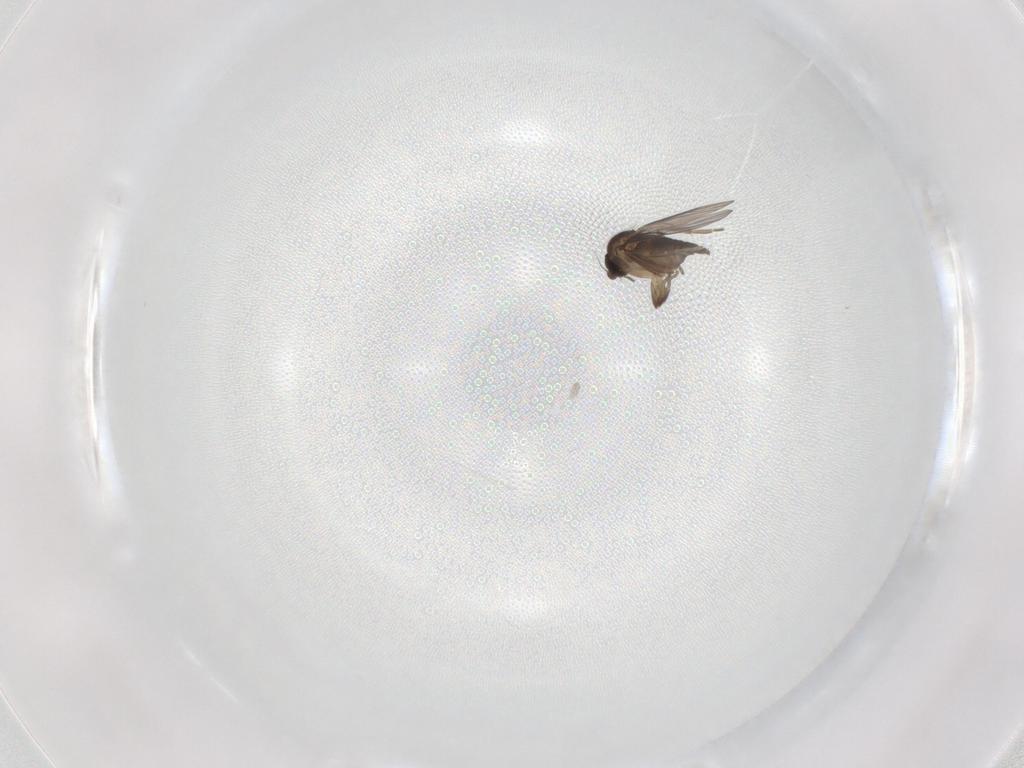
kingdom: Animalia
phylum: Arthropoda
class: Insecta
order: Diptera
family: Phoridae
